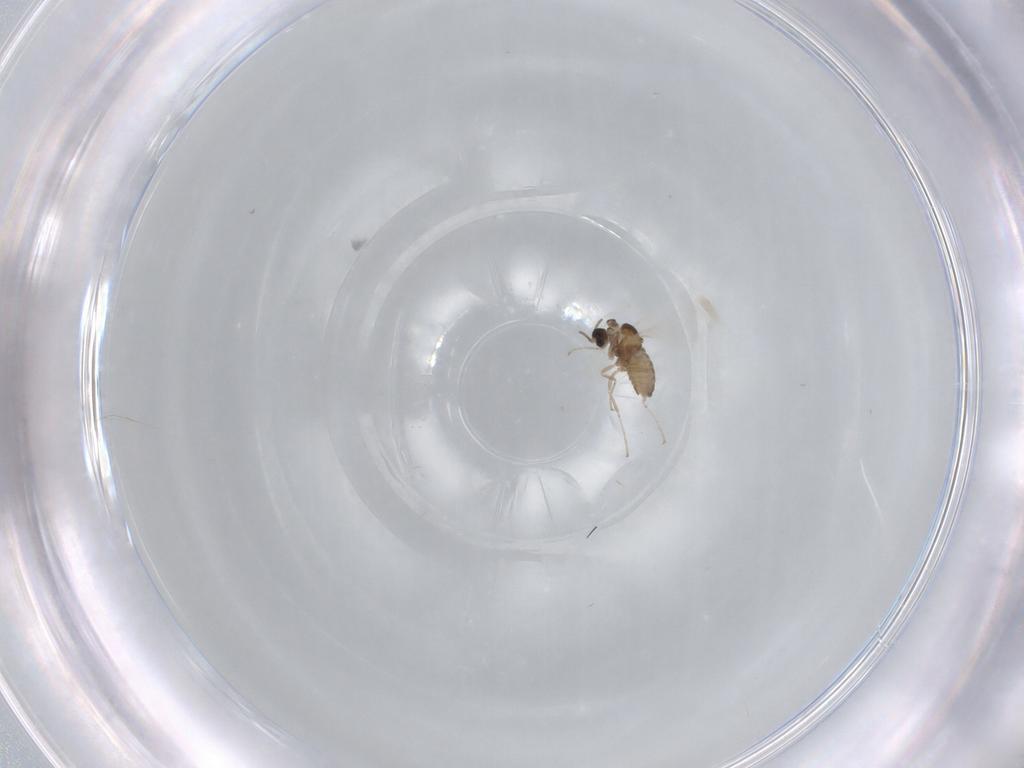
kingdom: Animalia
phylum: Arthropoda
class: Insecta
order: Diptera
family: Cecidomyiidae
